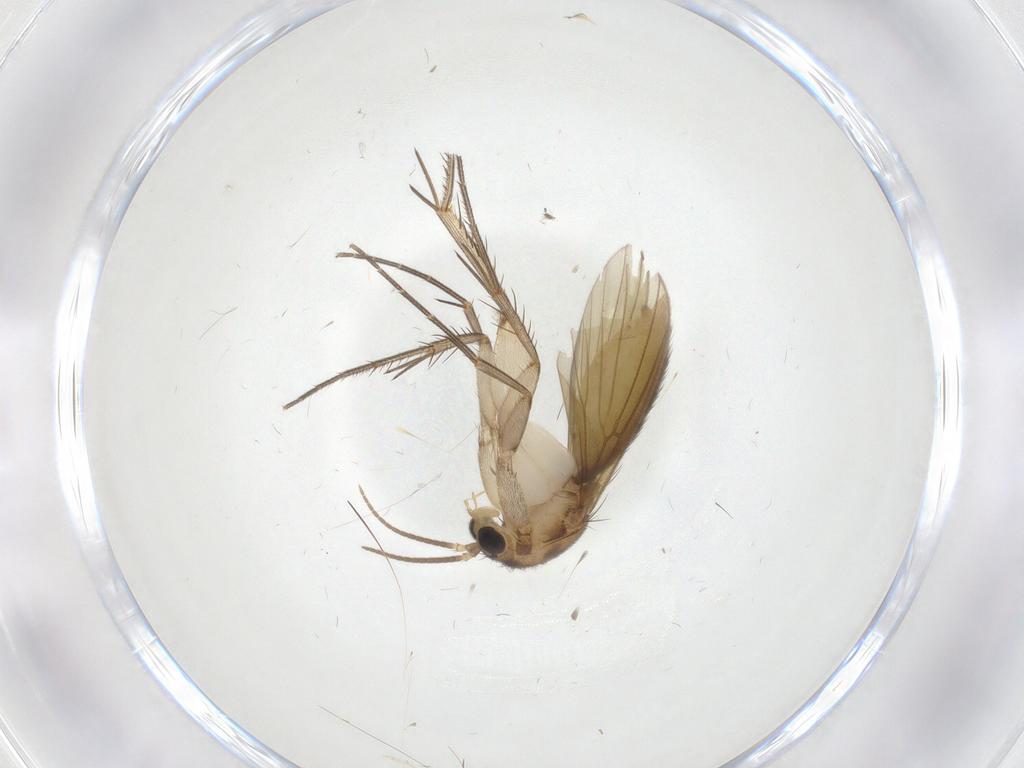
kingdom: Animalia
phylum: Arthropoda
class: Insecta
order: Diptera
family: Mycetophilidae
